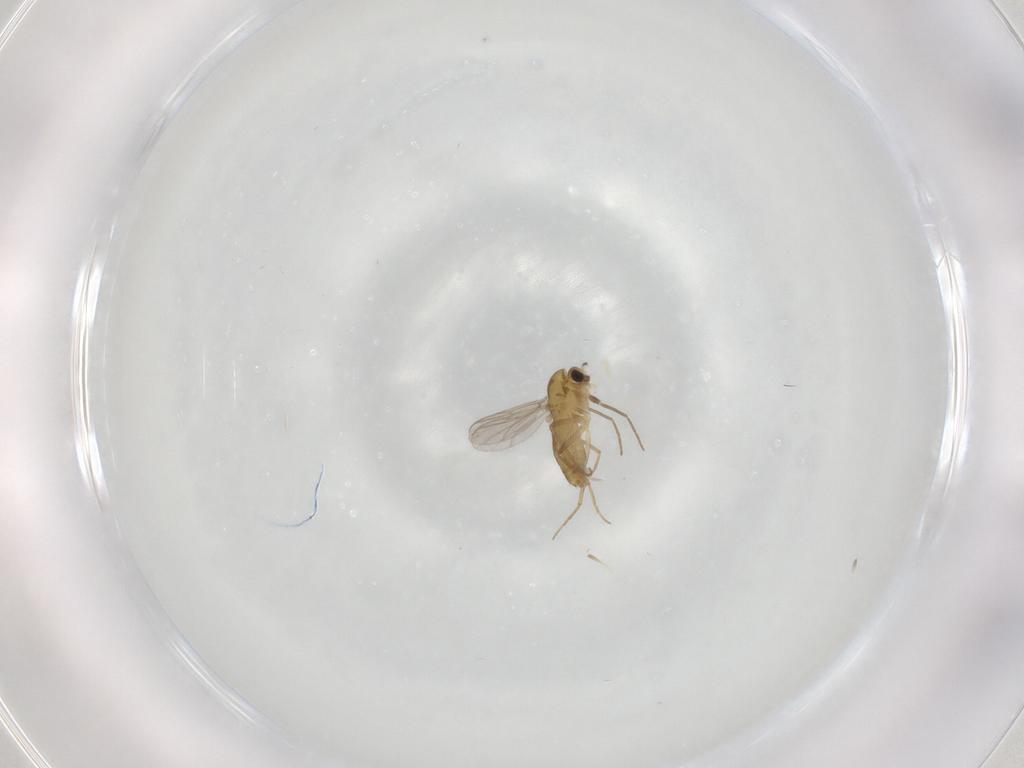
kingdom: Animalia
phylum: Arthropoda
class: Insecta
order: Diptera
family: Chironomidae
